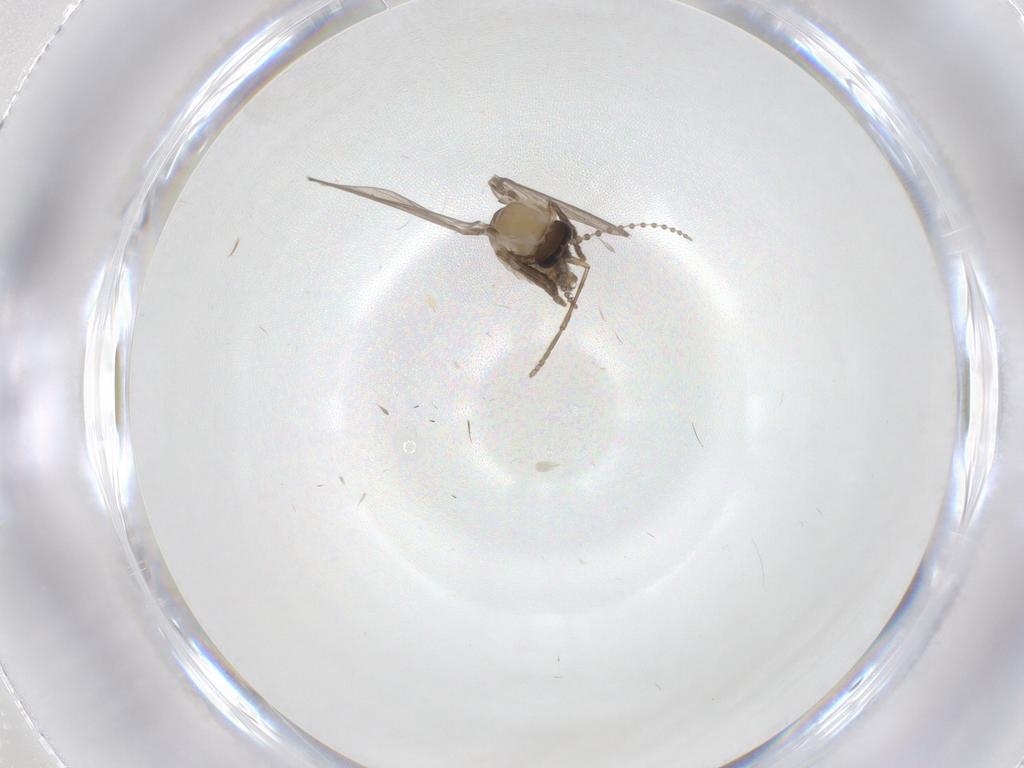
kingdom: Animalia
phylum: Arthropoda
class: Insecta
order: Diptera
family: Psychodidae
